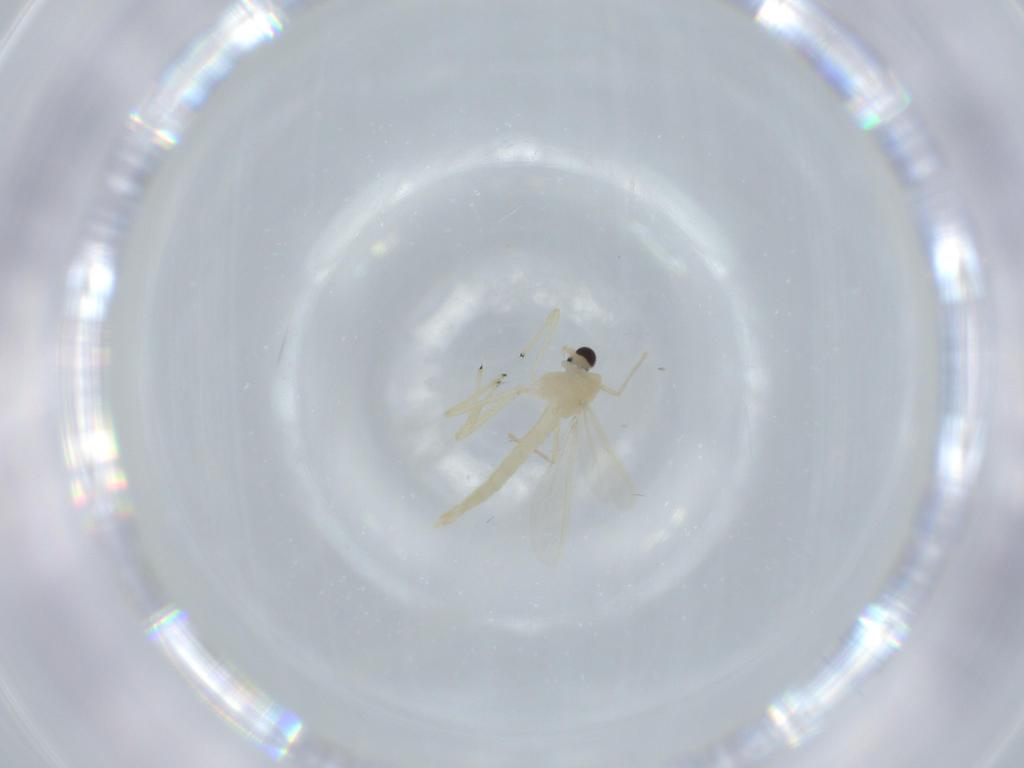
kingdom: Animalia
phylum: Arthropoda
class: Insecta
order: Diptera
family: Chironomidae
